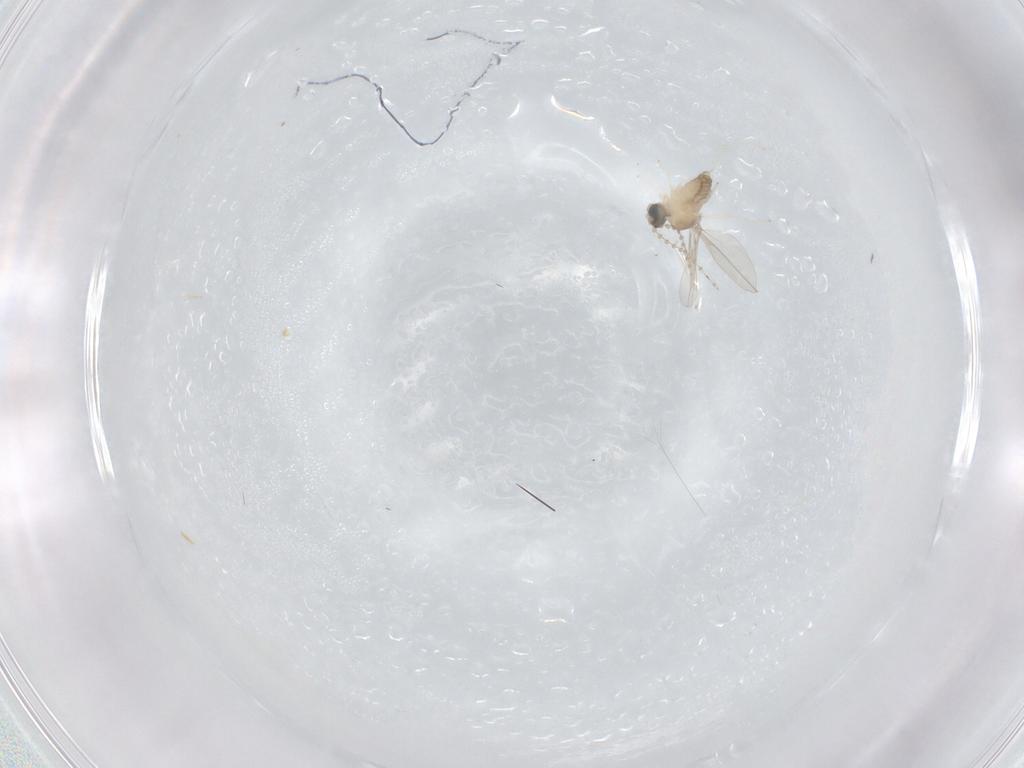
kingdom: Animalia
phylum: Arthropoda
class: Insecta
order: Diptera
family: Cecidomyiidae
